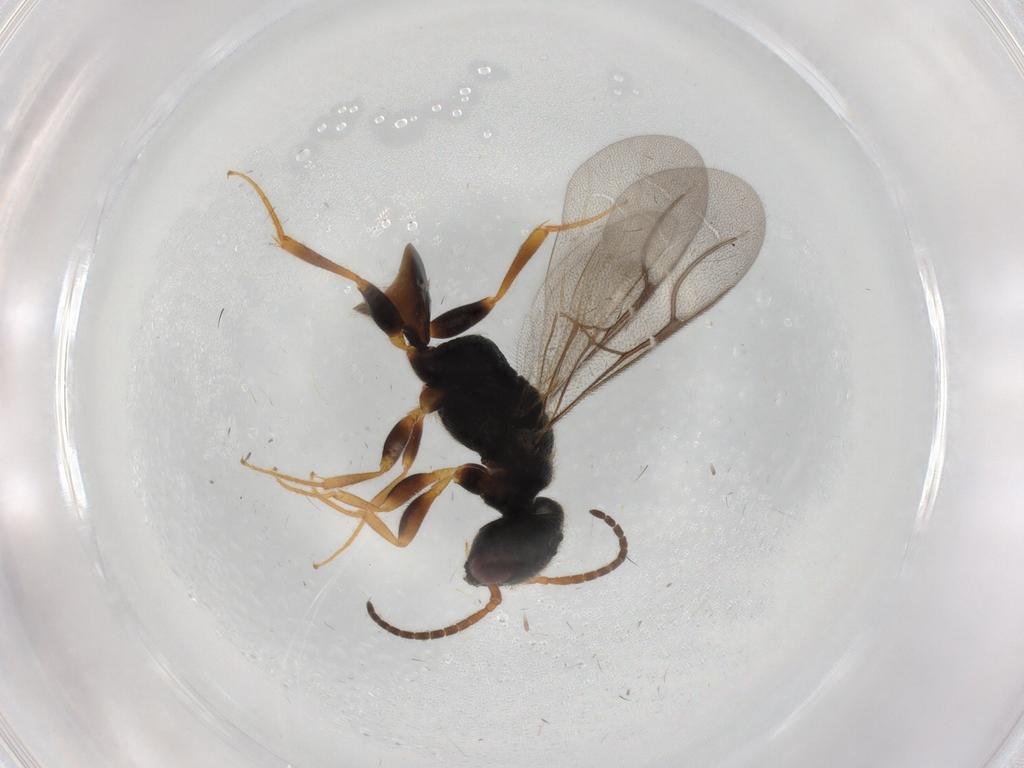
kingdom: Animalia
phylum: Arthropoda
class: Insecta
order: Hymenoptera
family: Bethylidae
